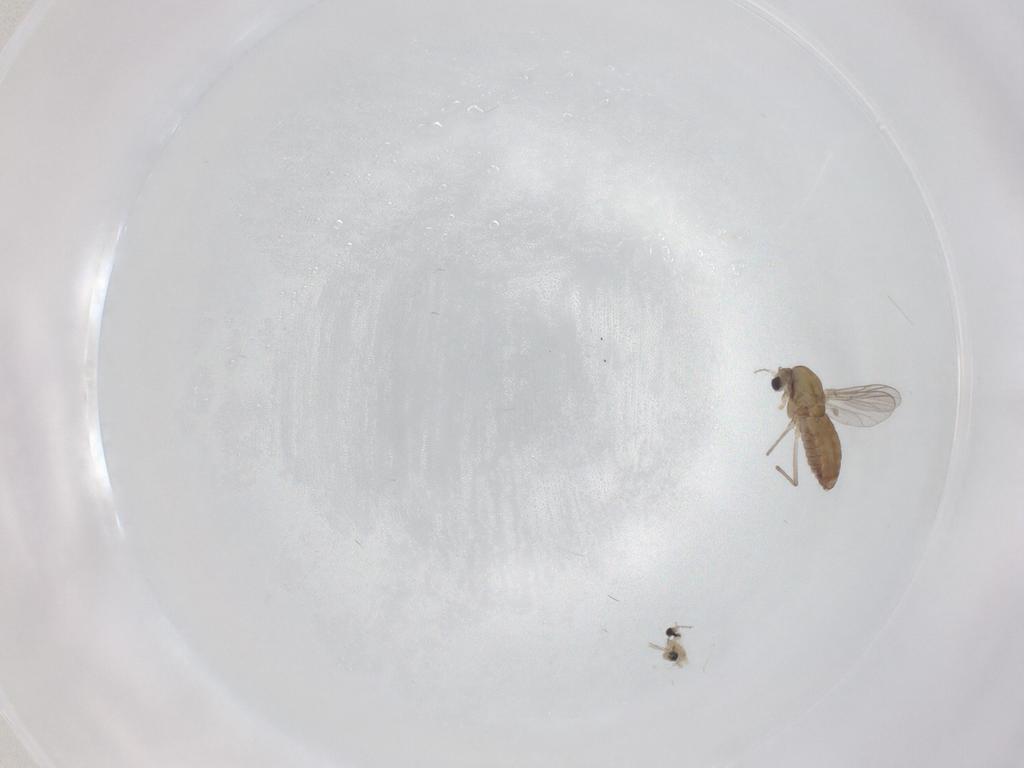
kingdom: Animalia
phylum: Arthropoda
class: Insecta
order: Diptera
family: Chironomidae
